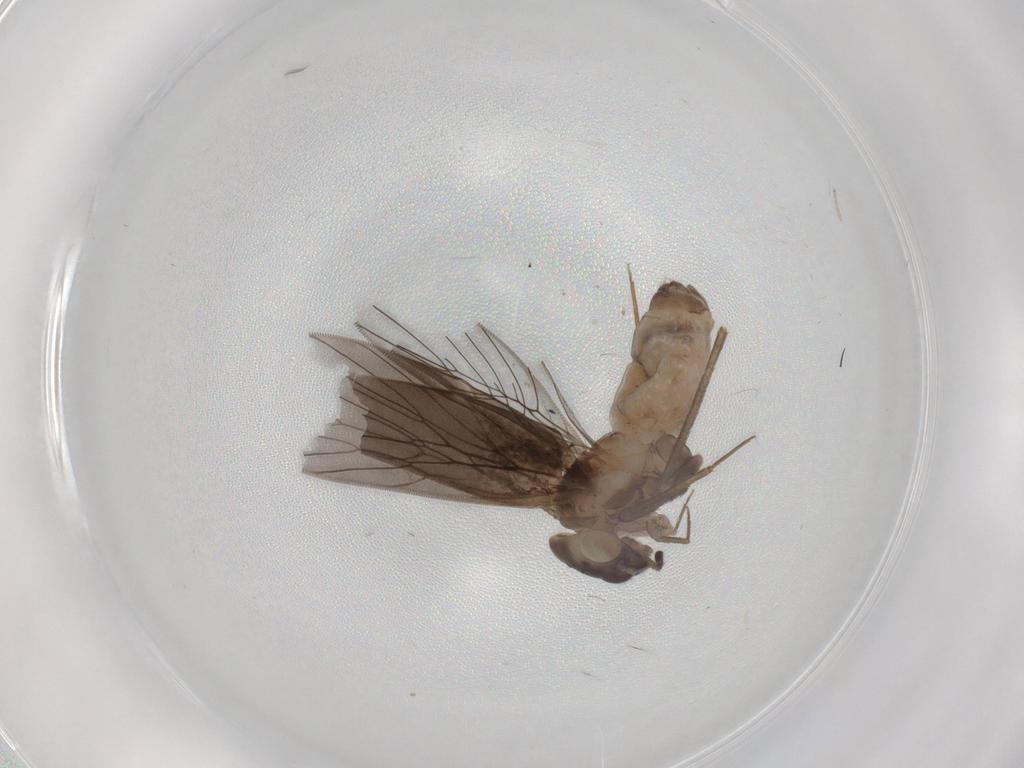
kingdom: Animalia
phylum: Arthropoda
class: Insecta
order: Psocodea
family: Lepidopsocidae
